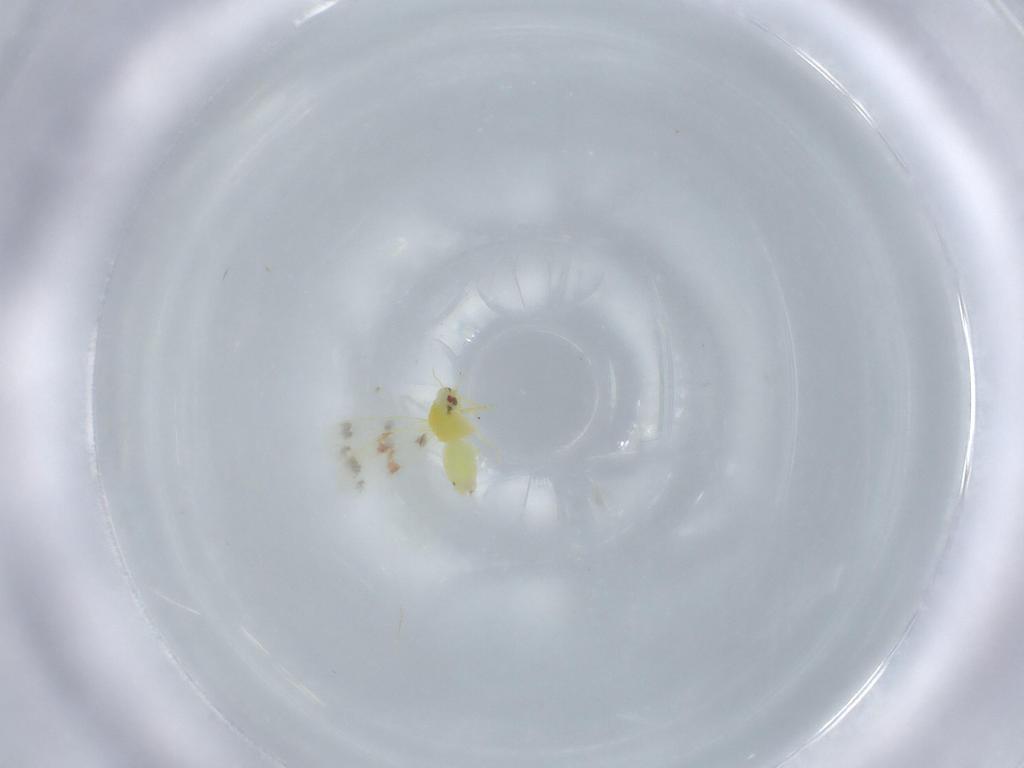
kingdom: Animalia
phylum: Arthropoda
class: Insecta
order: Hemiptera
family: Aleyrodidae
